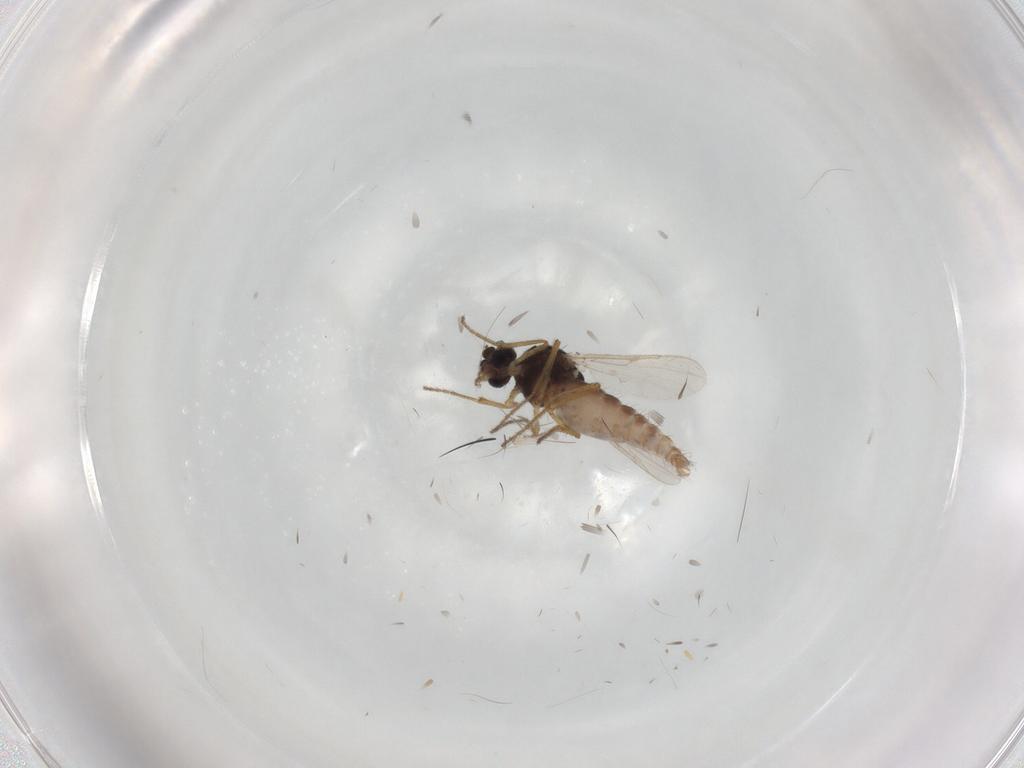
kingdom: Animalia
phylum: Arthropoda
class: Insecta
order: Diptera
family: Ceratopogonidae
